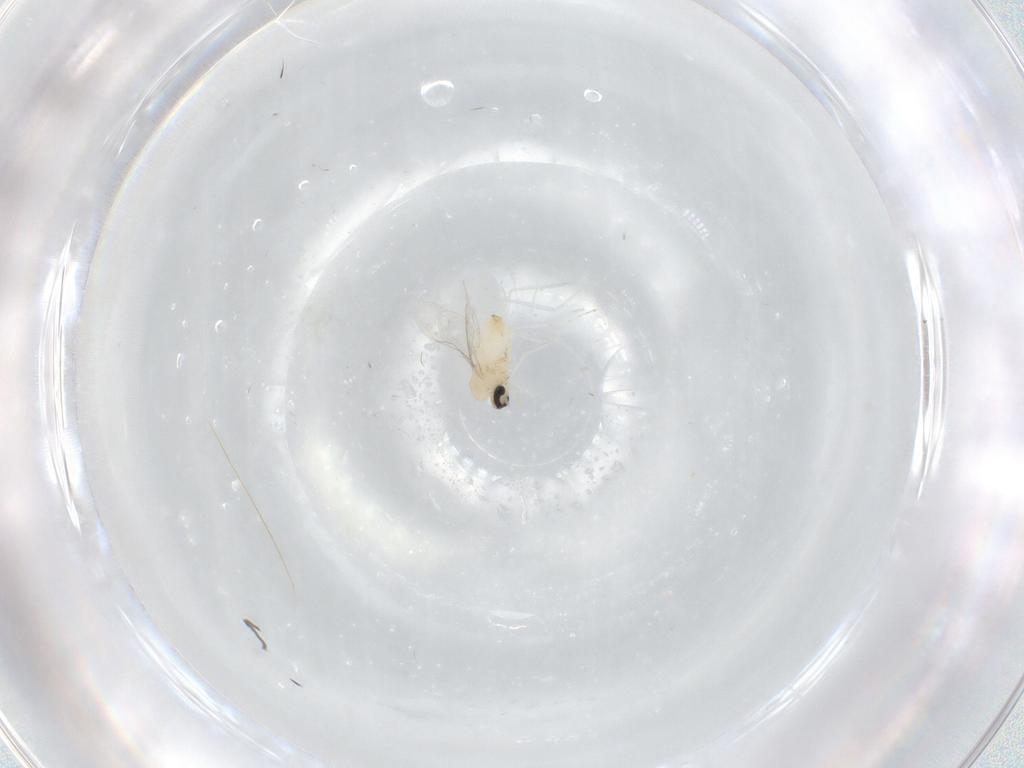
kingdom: Animalia
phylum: Arthropoda
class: Insecta
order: Diptera
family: Cecidomyiidae
